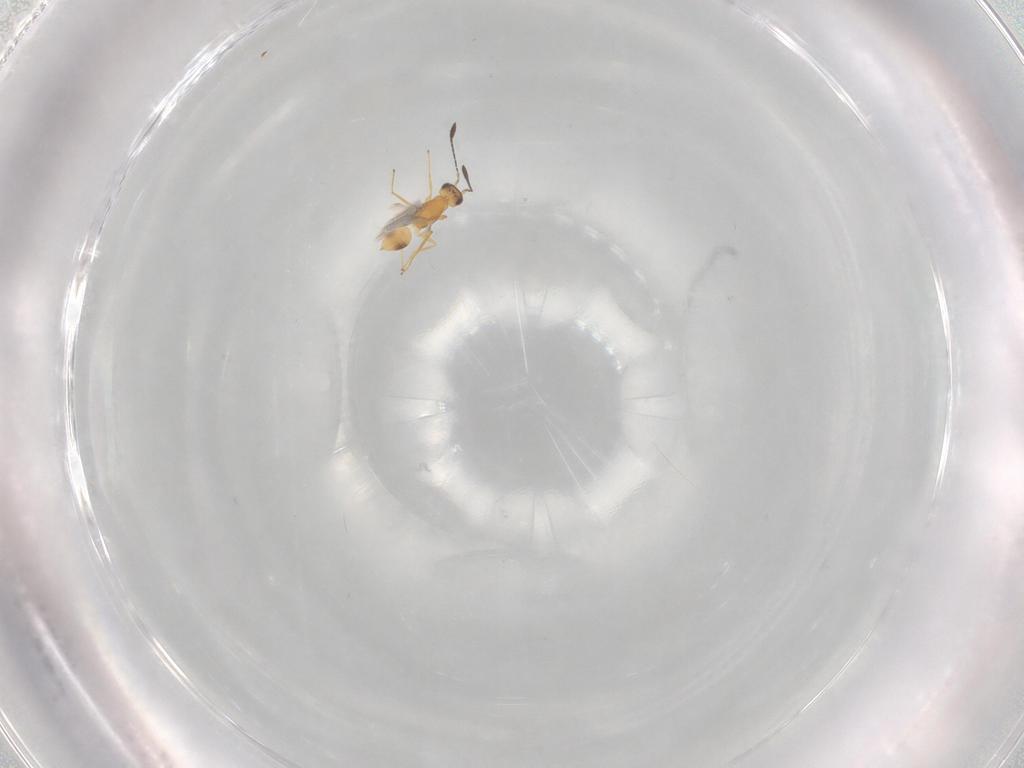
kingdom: Animalia
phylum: Arthropoda
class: Insecta
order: Hymenoptera
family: Mymaridae
